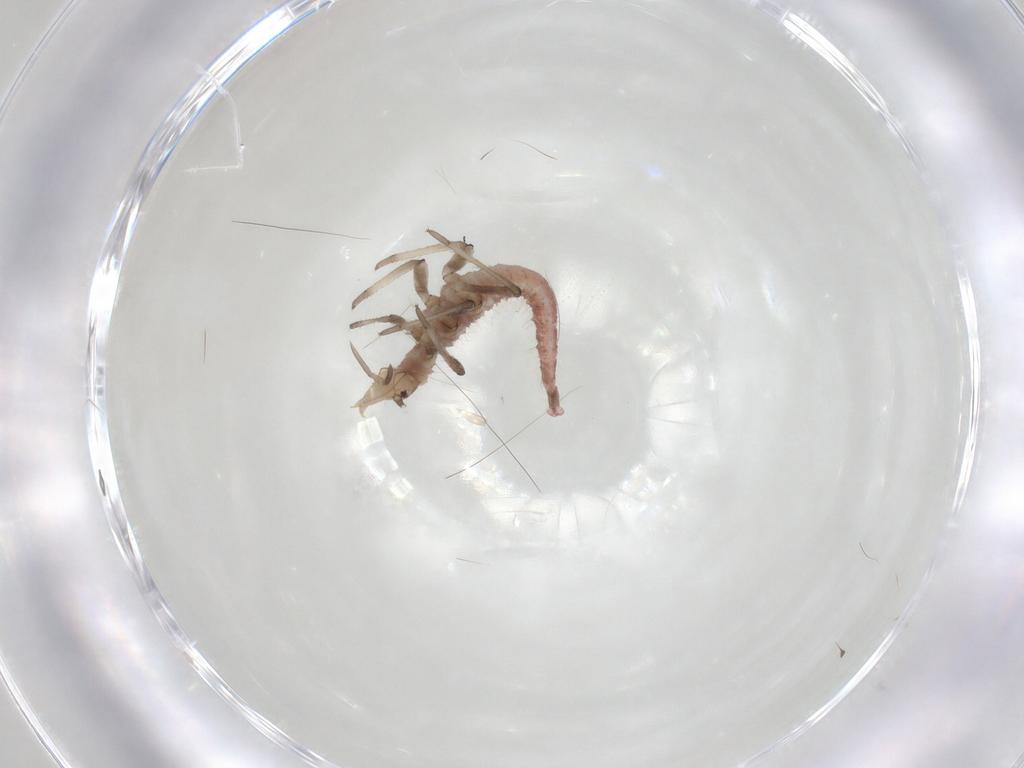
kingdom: Animalia
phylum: Arthropoda
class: Insecta
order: Neuroptera
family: Hemerobiidae
